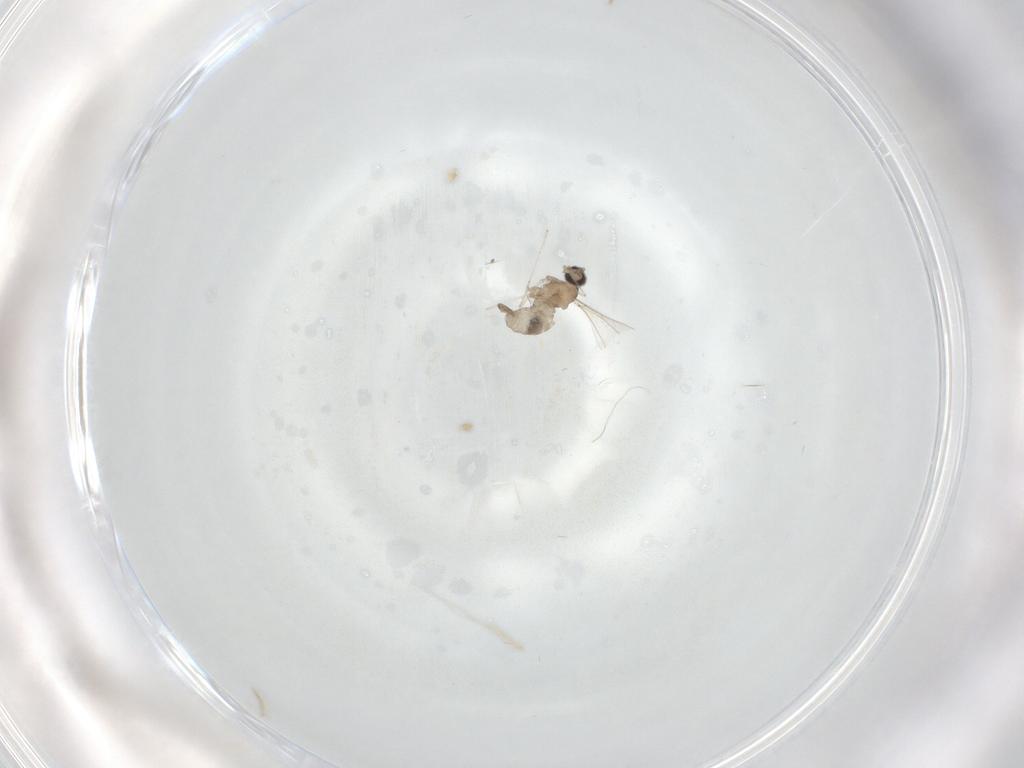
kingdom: Animalia
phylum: Arthropoda
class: Insecta
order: Diptera
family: Cecidomyiidae
